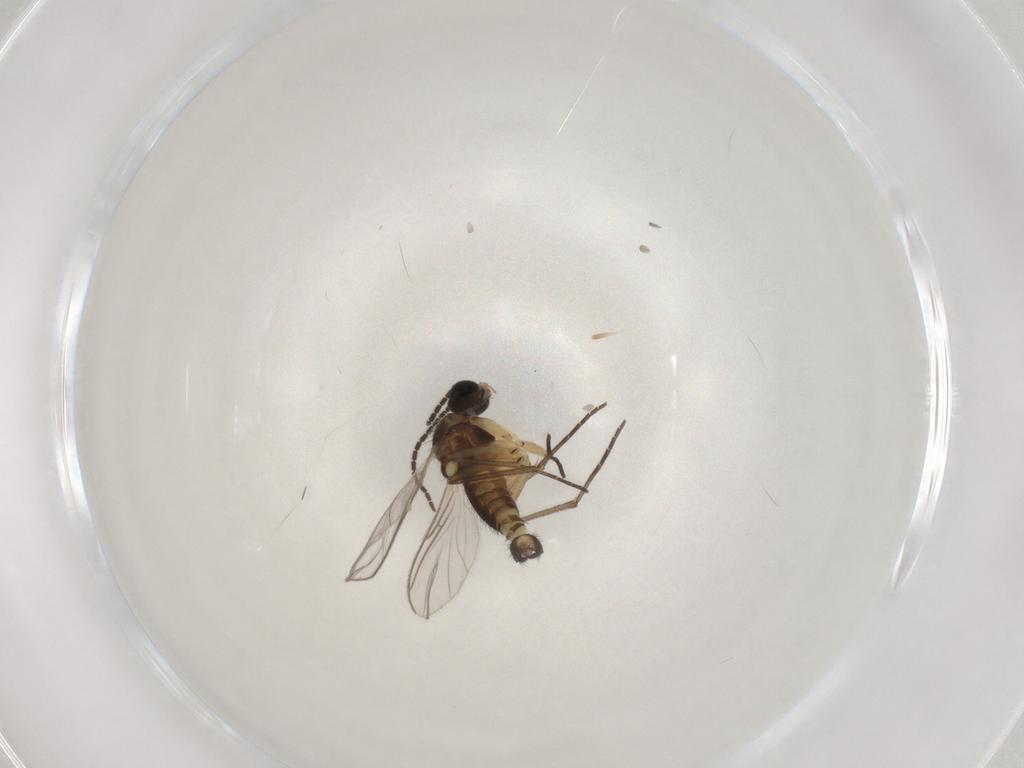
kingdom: Animalia
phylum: Arthropoda
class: Insecta
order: Diptera
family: Sciaridae
